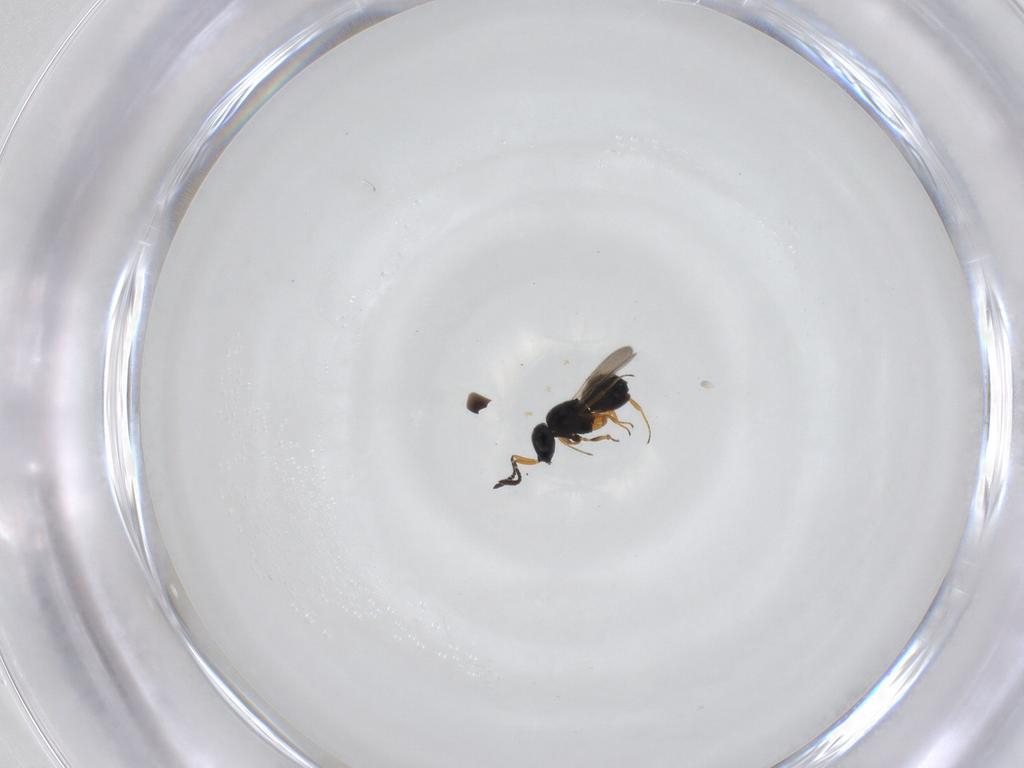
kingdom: Animalia
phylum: Arthropoda
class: Insecta
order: Hymenoptera
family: Scelionidae
